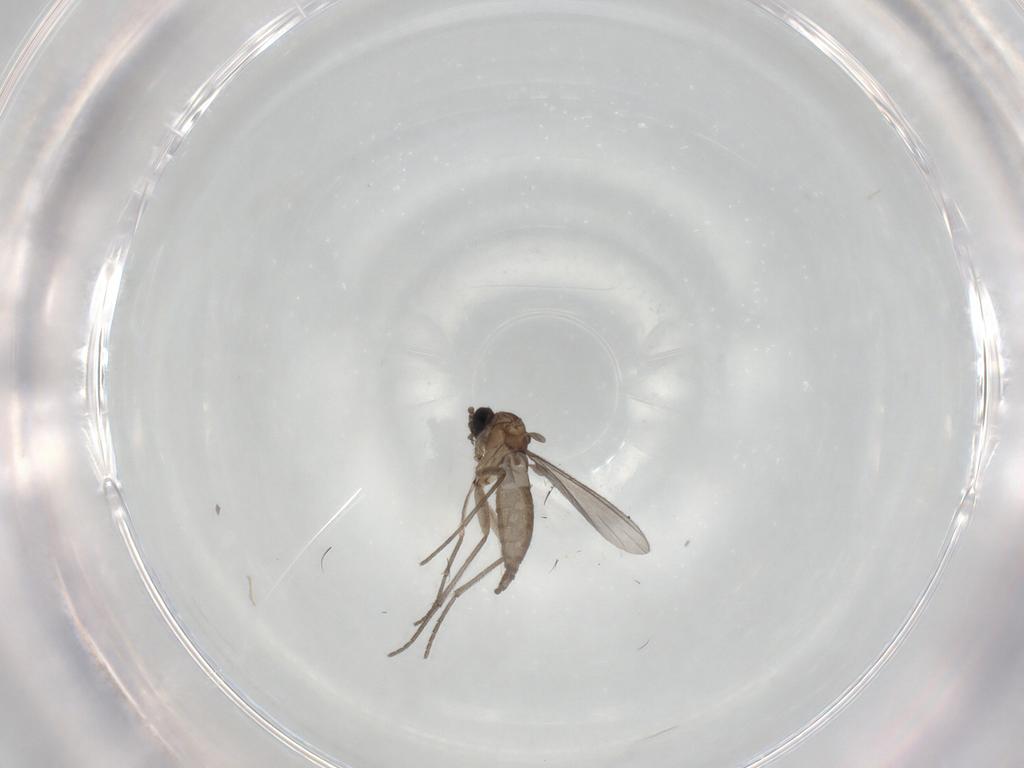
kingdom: Animalia
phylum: Arthropoda
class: Insecta
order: Diptera
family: Sciaridae
